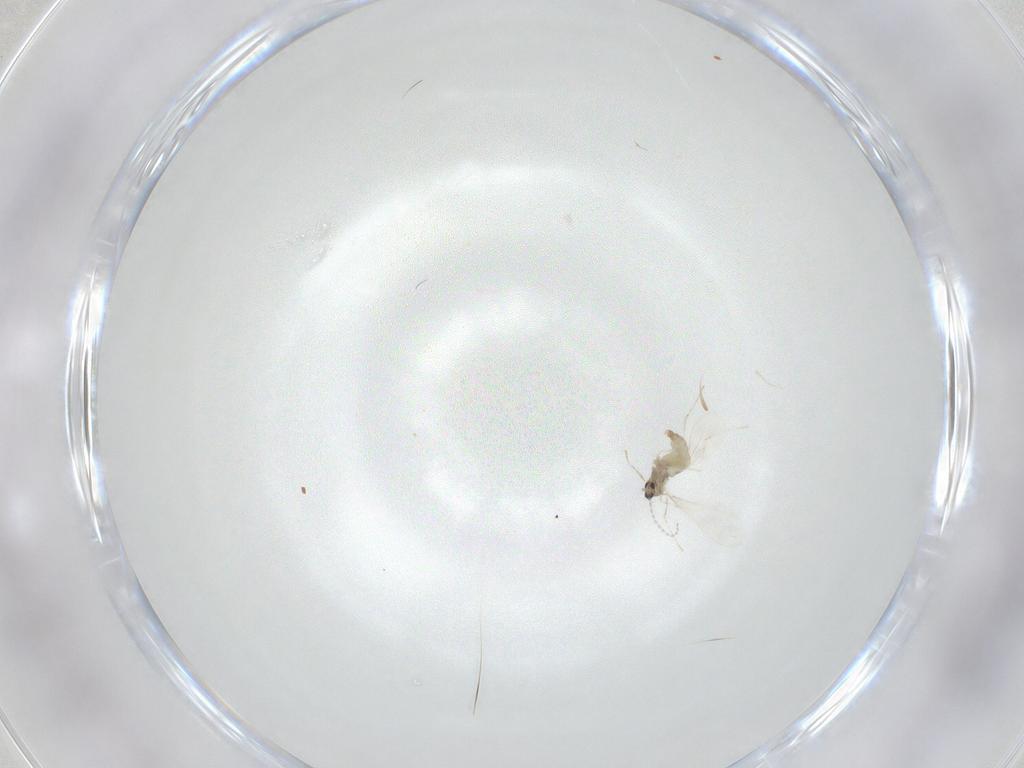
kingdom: Animalia
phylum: Arthropoda
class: Insecta
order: Diptera
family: Cecidomyiidae
